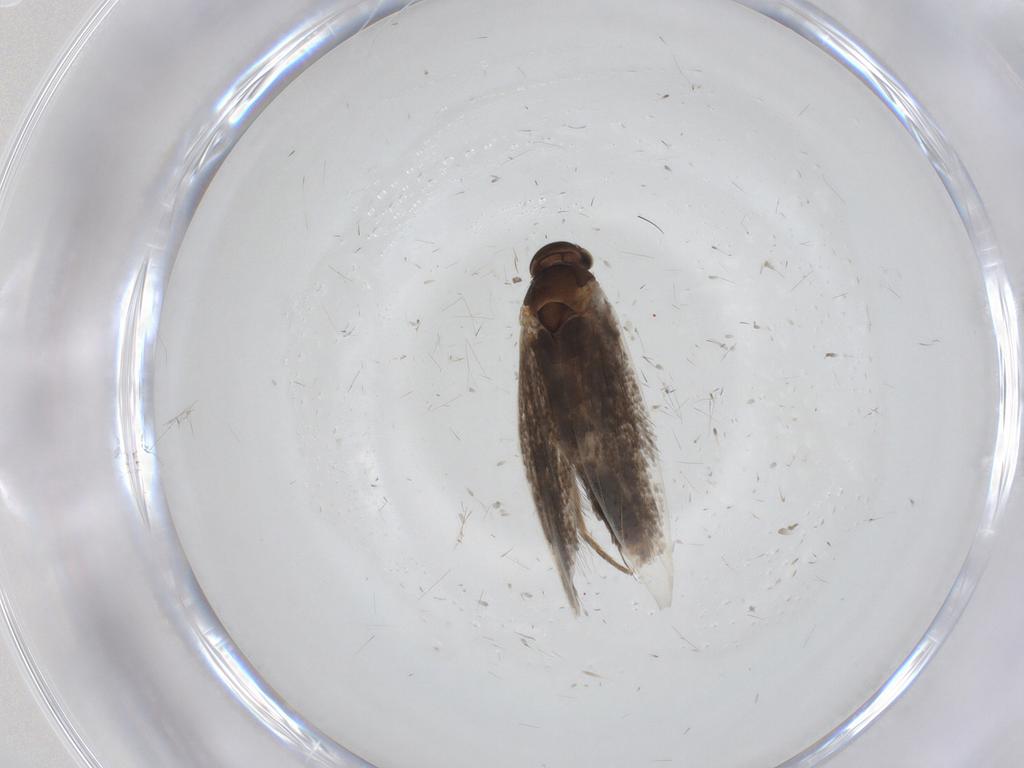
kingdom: Animalia
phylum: Arthropoda
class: Insecta
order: Lepidoptera
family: Elachistidae
